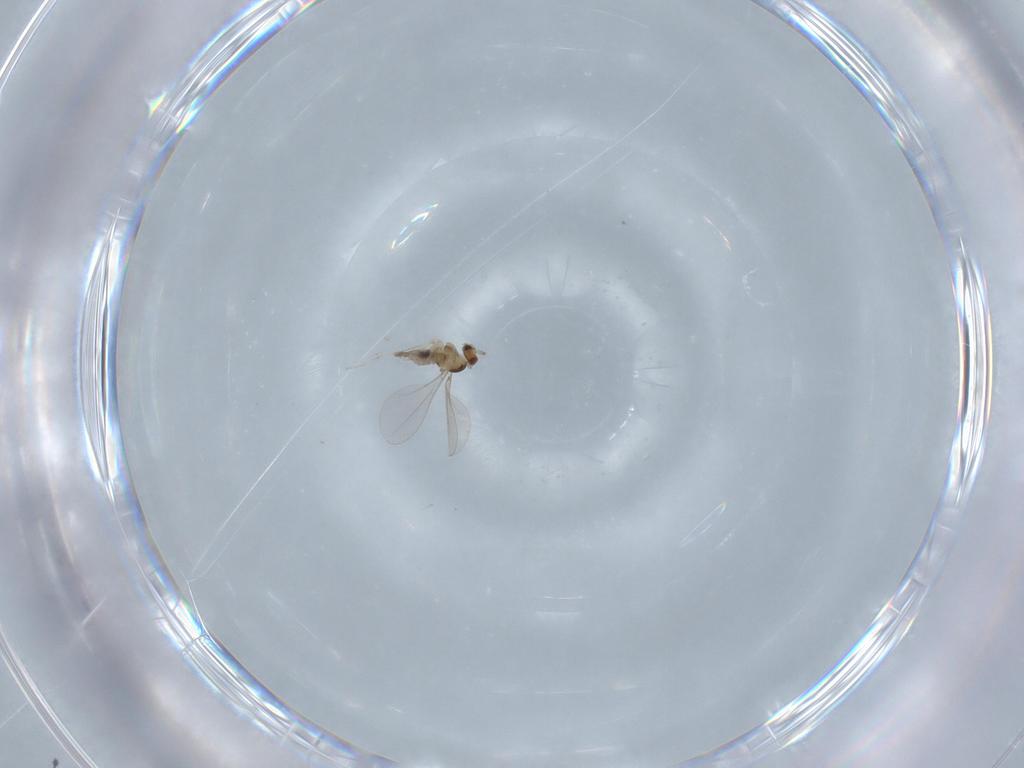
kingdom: Animalia
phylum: Arthropoda
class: Insecta
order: Diptera
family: Cecidomyiidae
